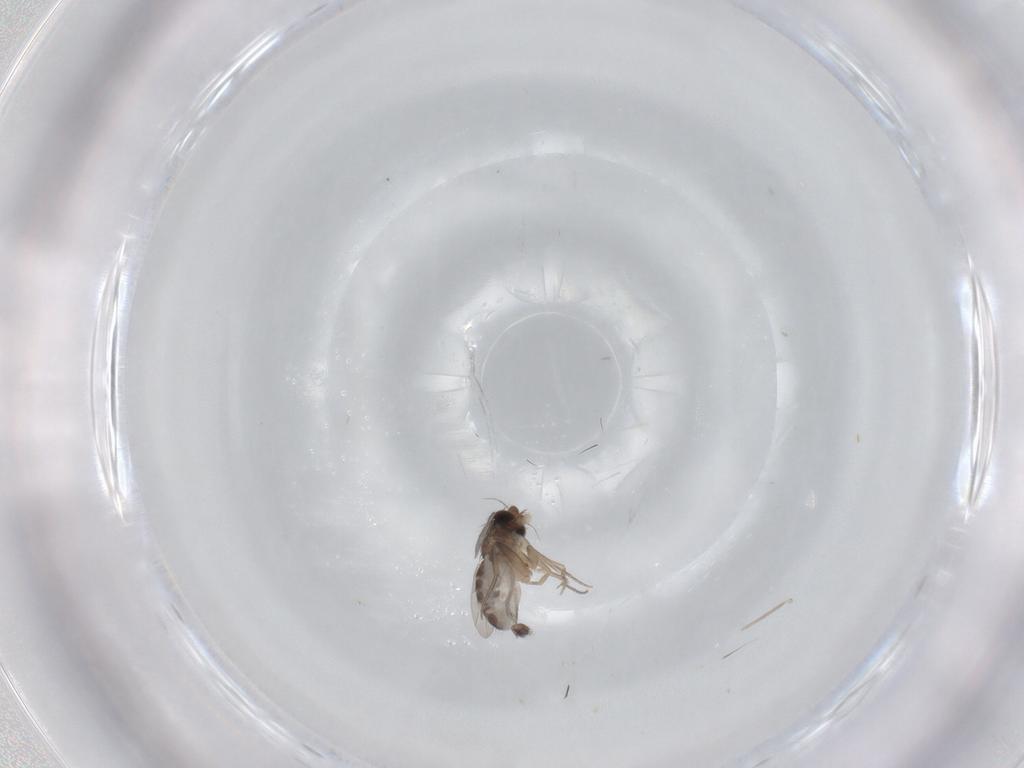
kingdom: Animalia
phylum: Arthropoda
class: Insecta
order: Diptera
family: Phoridae
